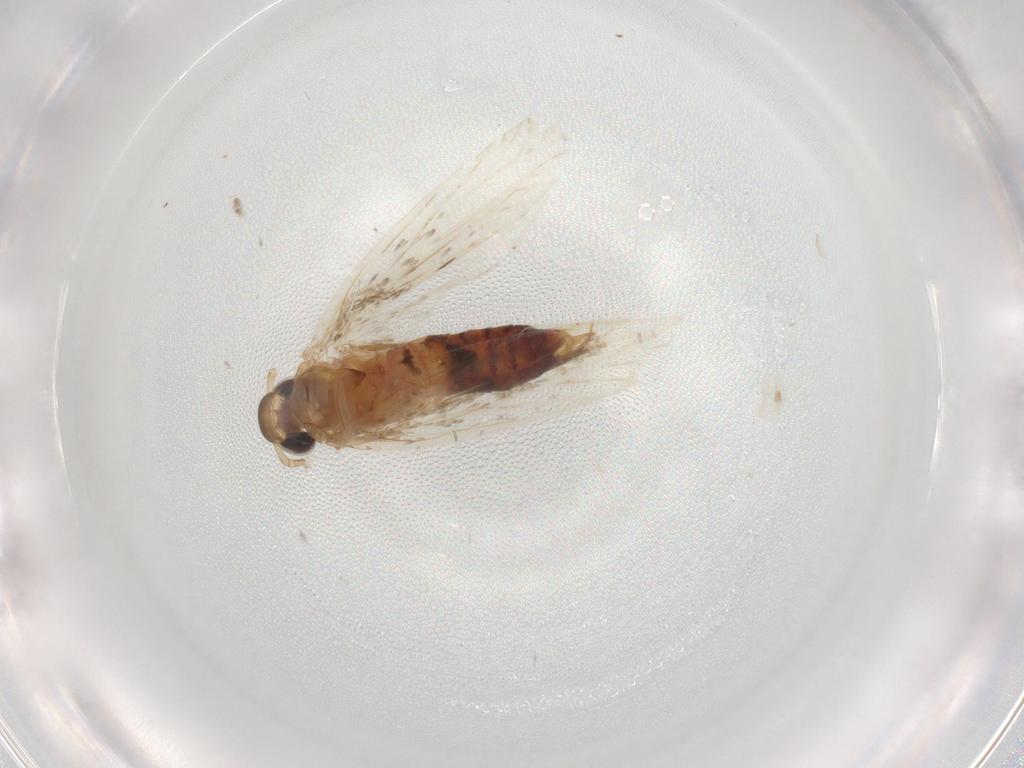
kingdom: Animalia
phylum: Arthropoda
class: Insecta
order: Lepidoptera
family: Gelechiidae
